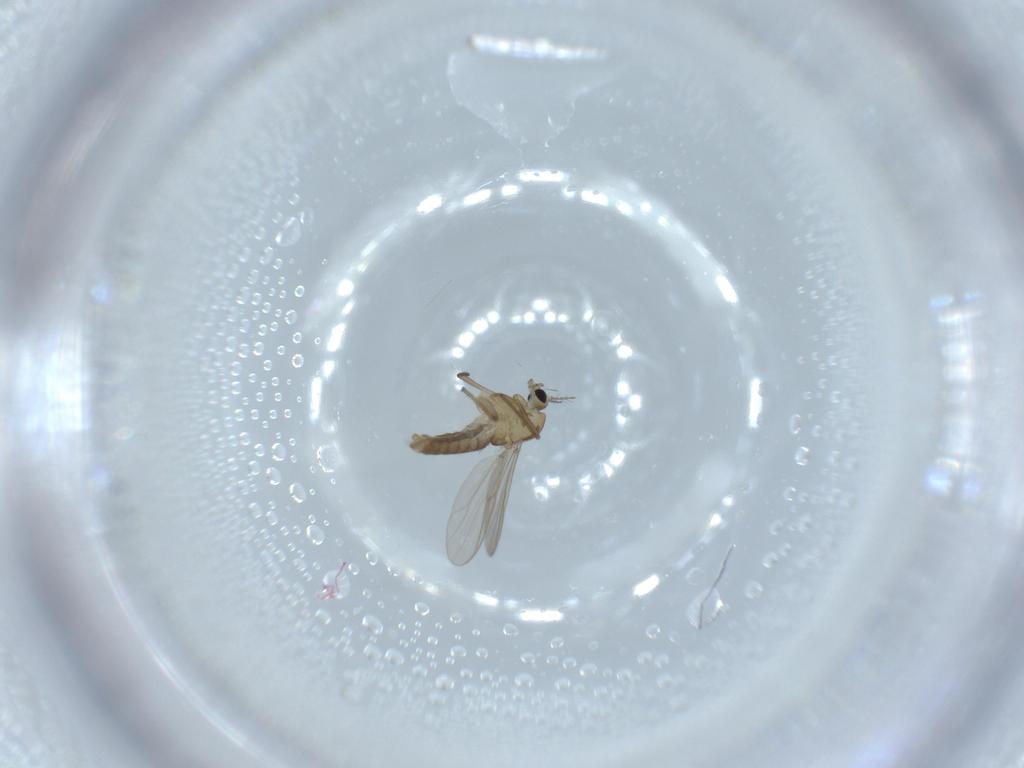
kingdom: Animalia
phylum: Arthropoda
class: Insecta
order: Diptera
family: Chironomidae
